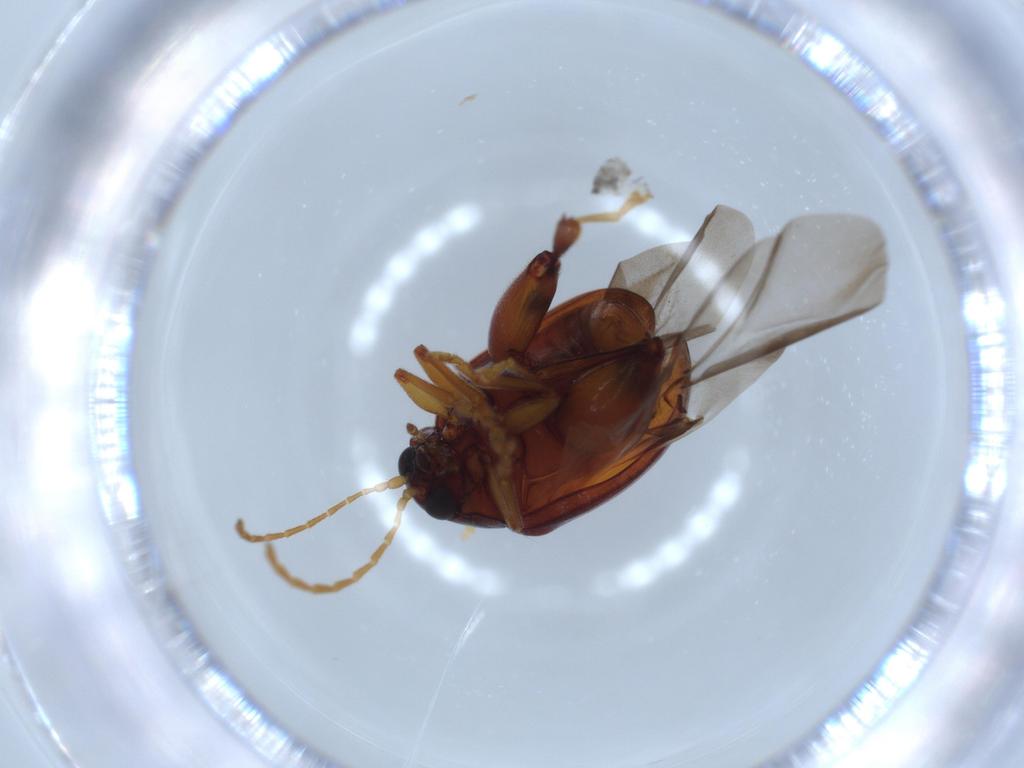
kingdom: Animalia
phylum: Arthropoda
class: Insecta
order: Coleoptera
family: Chrysomelidae
